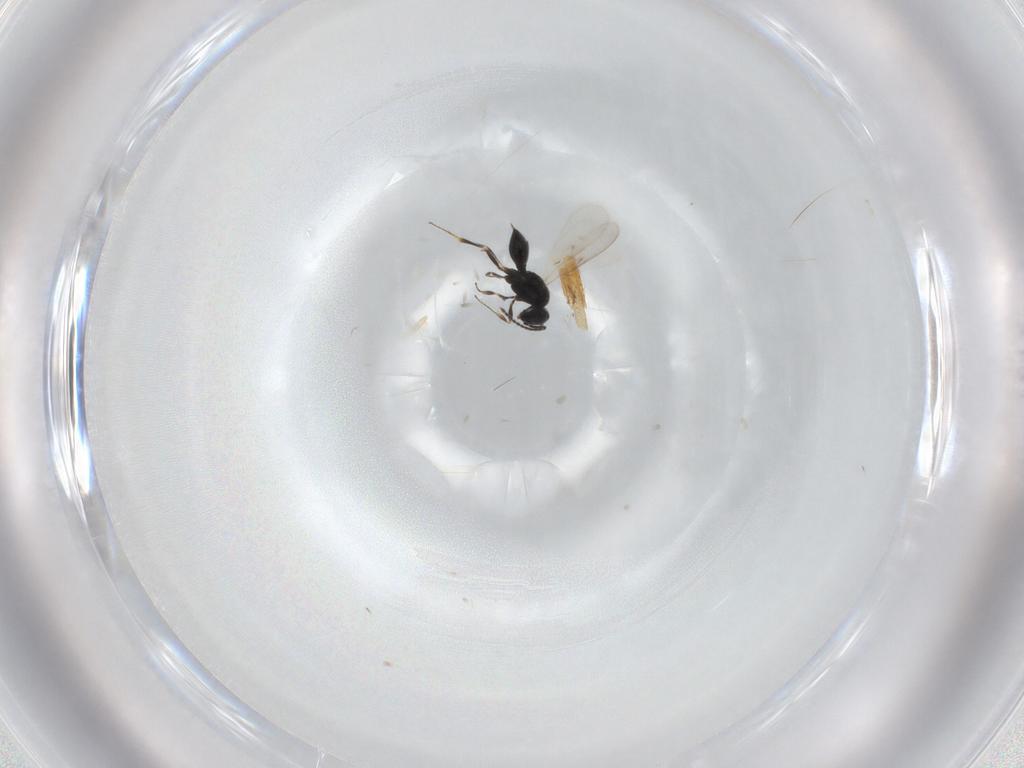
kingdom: Animalia
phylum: Arthropoda
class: Insecta
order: Hymenoptera
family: Scelionidae
